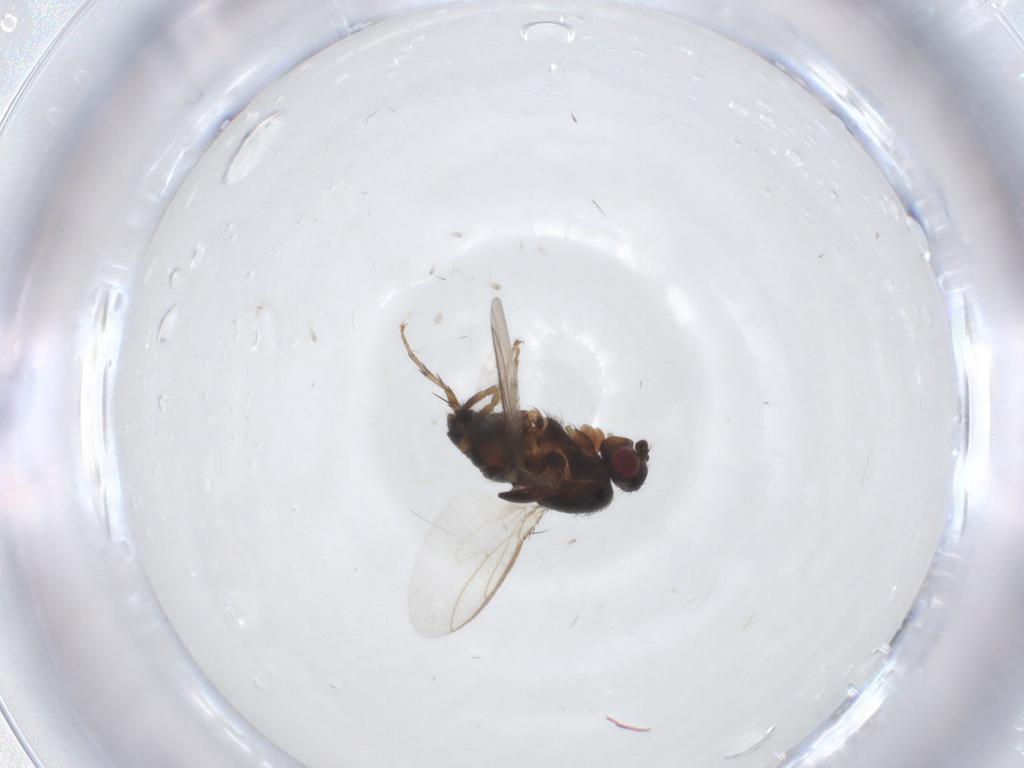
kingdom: Animalia
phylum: Arthropoda
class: Insecta
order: Diptera
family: Sphaeroceridae
